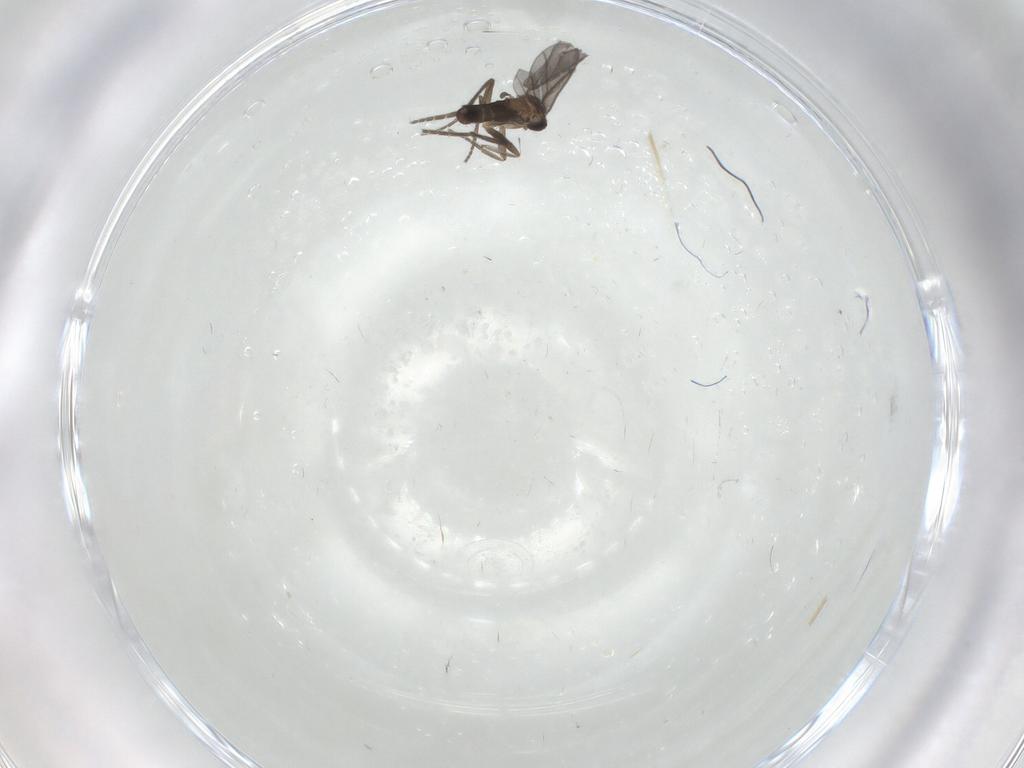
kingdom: Animalia
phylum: Arthropoda
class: Insecta
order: Diptera
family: Phoridae
